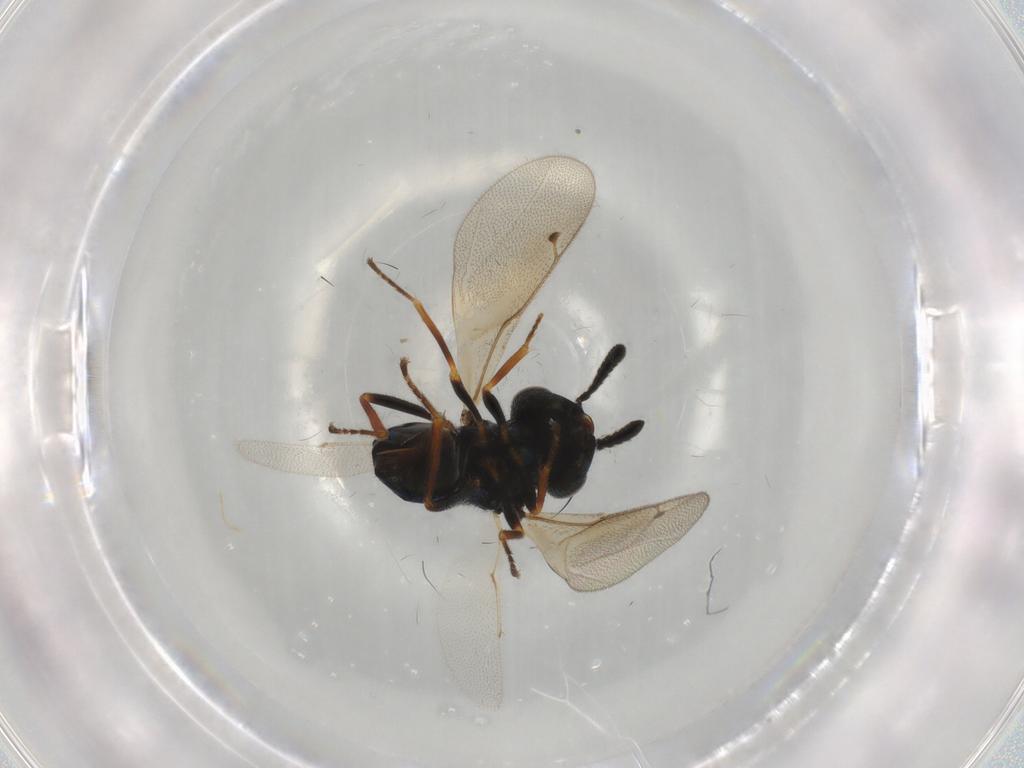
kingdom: Animalia
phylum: Arthropoda
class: Insecta
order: Hymenoptera
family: Pteromalidae
